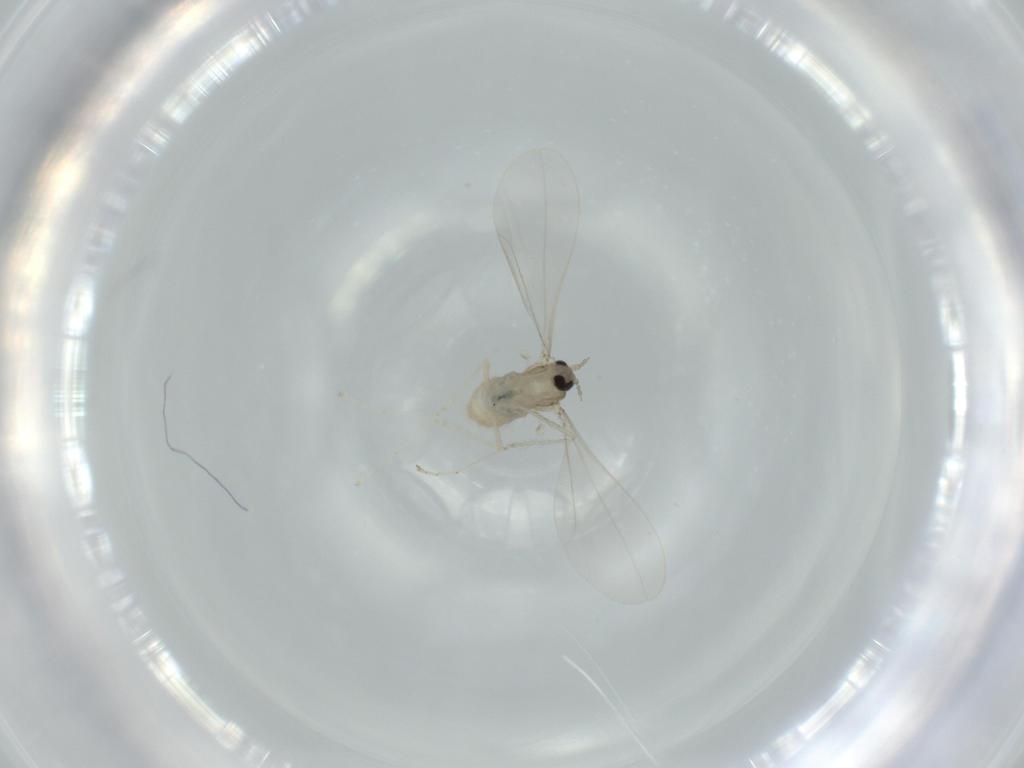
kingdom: Animalia
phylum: Arthropoda
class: Insecta
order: Diptera
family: Cecidomyiidae
